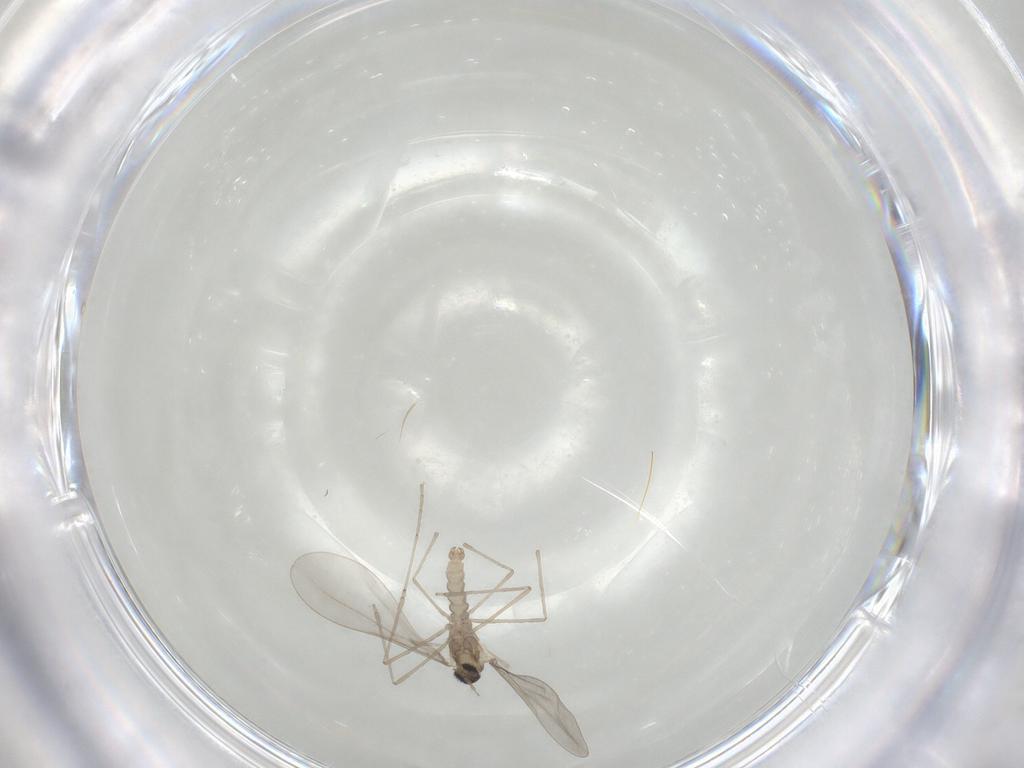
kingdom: Animalia
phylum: Arthropoda
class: Insecta
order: Diptera
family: Cecidomyiidae
